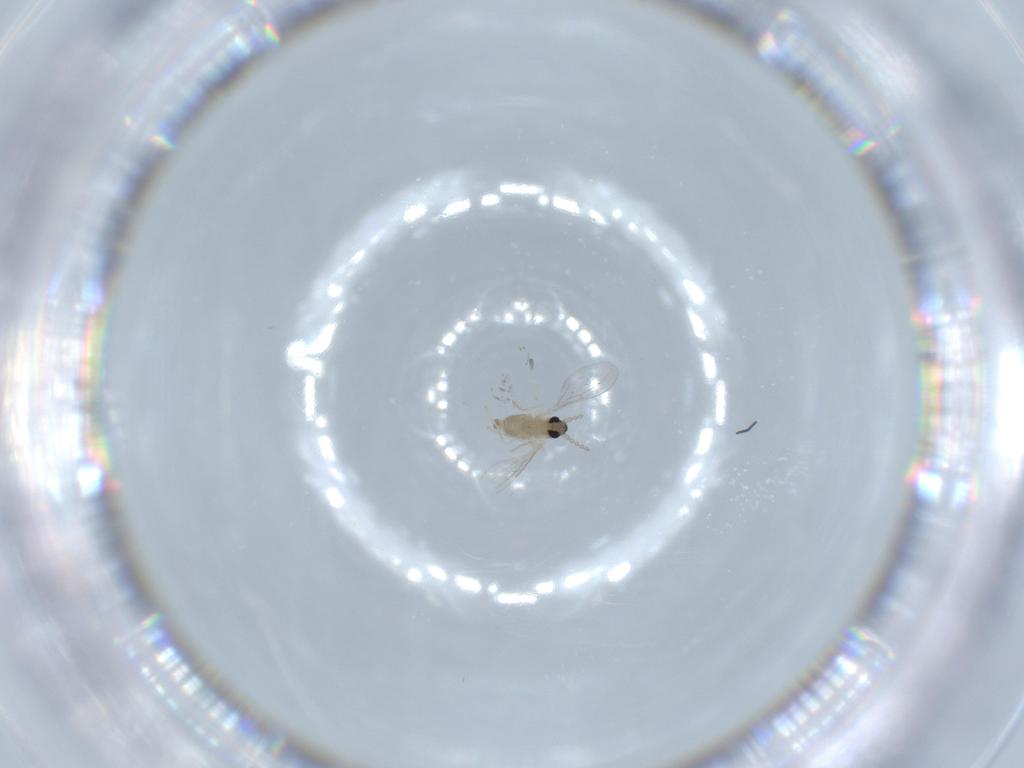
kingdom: Animalia
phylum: Arthropoda
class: Insecta
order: Diptera
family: Cecidomyiidae
